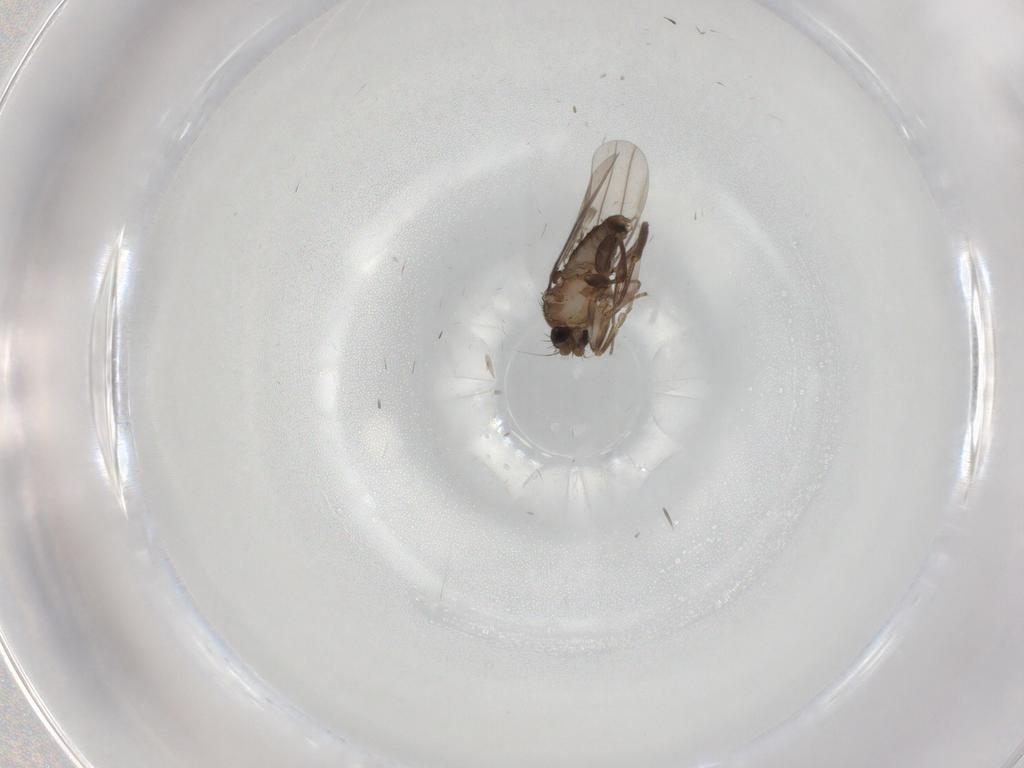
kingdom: Animalia
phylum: Arthropoda
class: Insecta
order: Diptera
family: Phoridae
